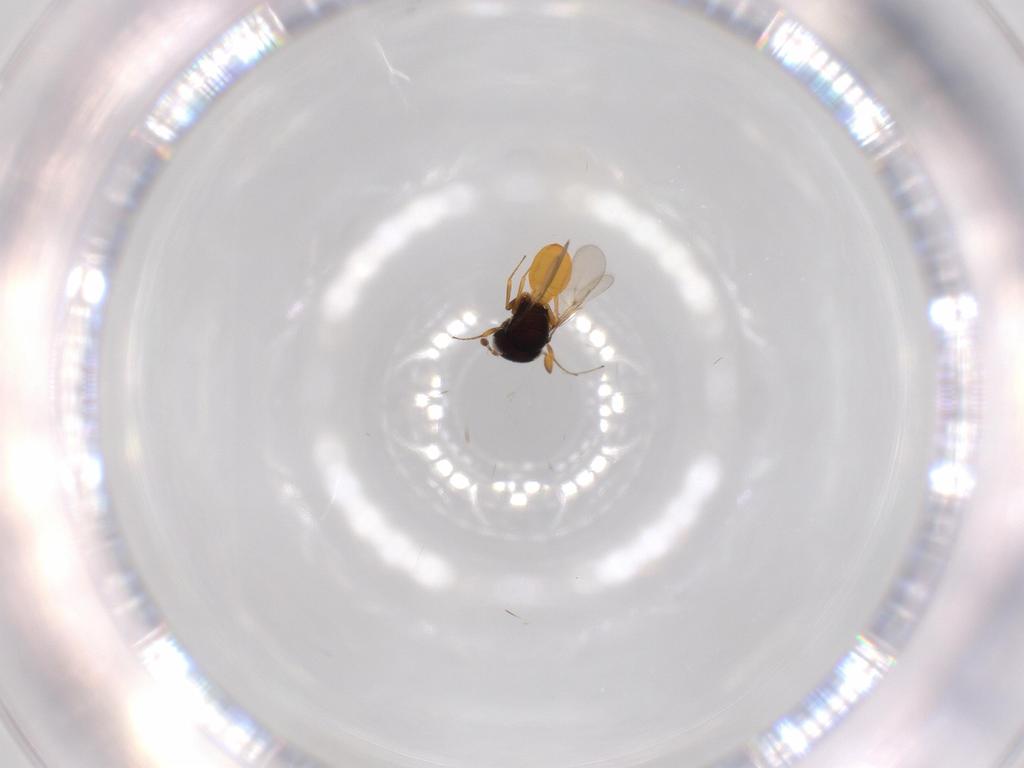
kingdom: Animalia
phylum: Arthropoda
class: Insecta
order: Hymenoptera
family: Scelionidae
